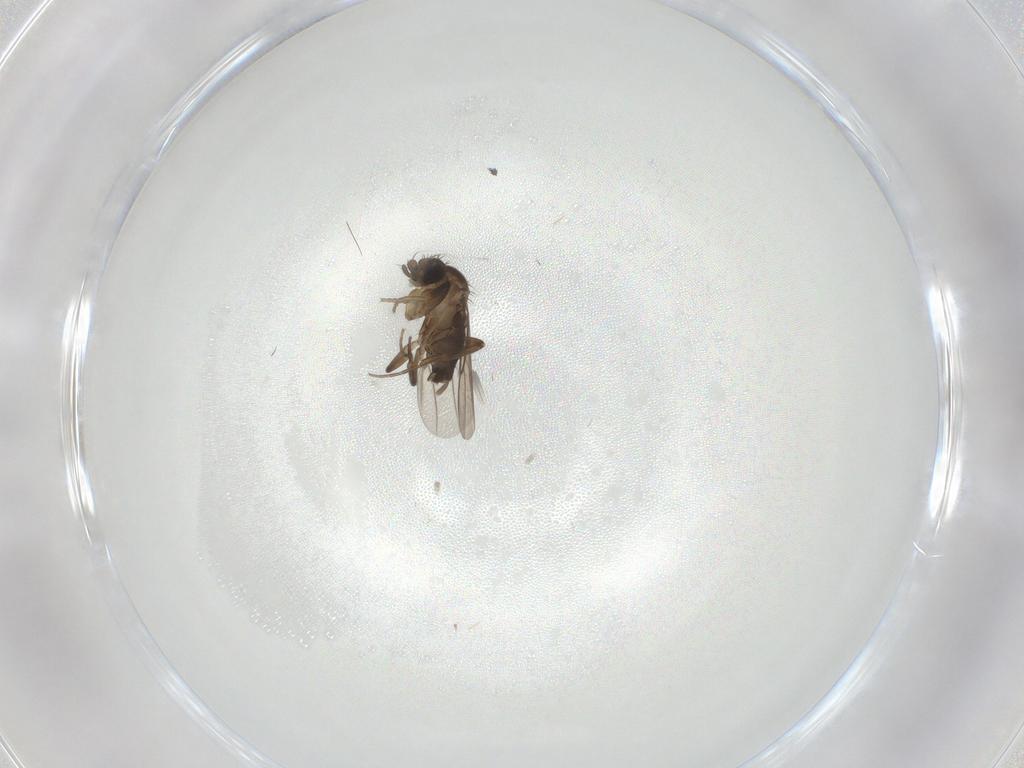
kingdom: Animalia
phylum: Arthropoda
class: Insecta
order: Diptera
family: Phoridae
